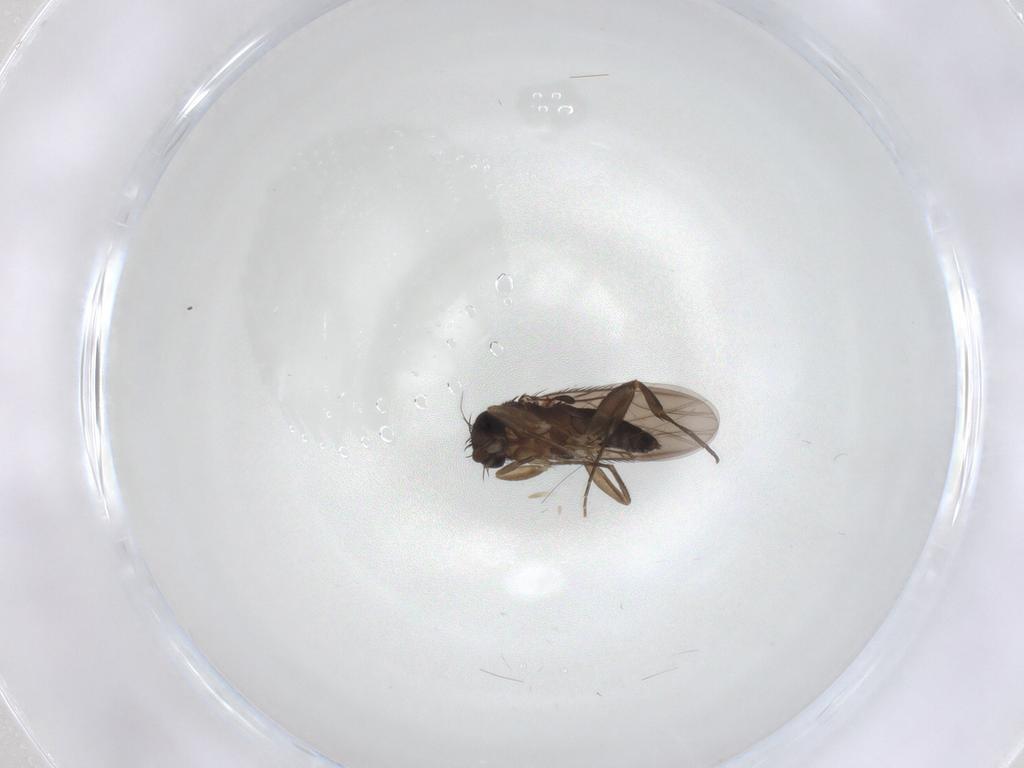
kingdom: Animalia
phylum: Arthropoda
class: Insecta
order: Diptera
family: Phoridae
